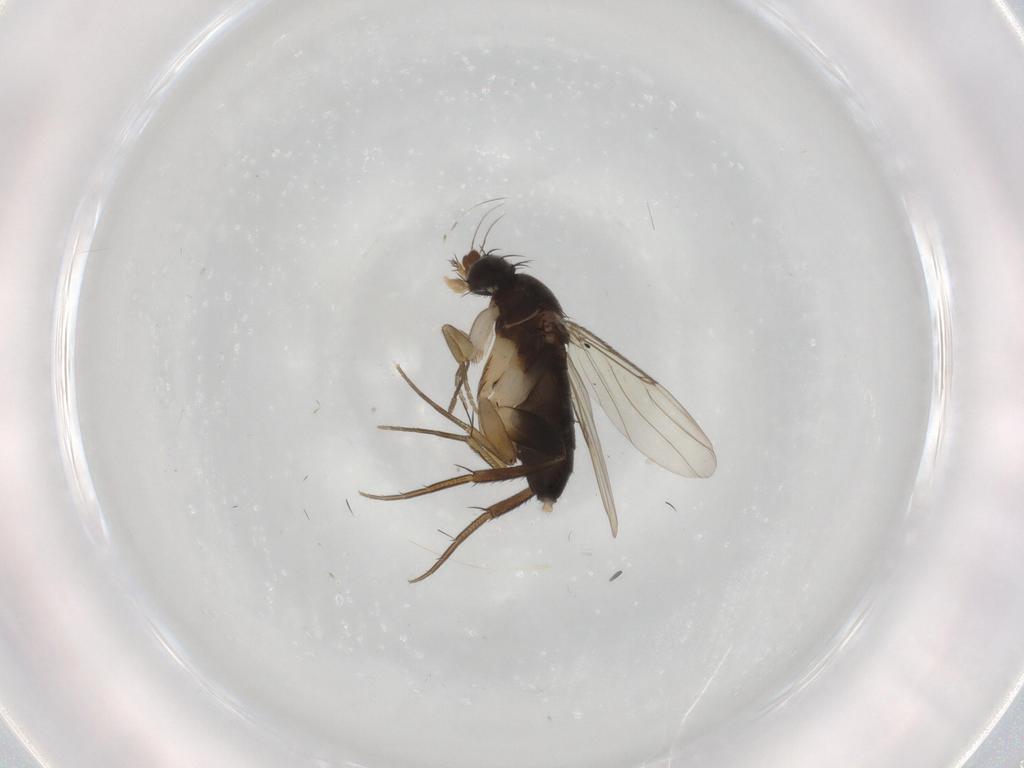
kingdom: Animalia
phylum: Arthropoda
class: Insecta
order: Diptera
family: Phoridae
